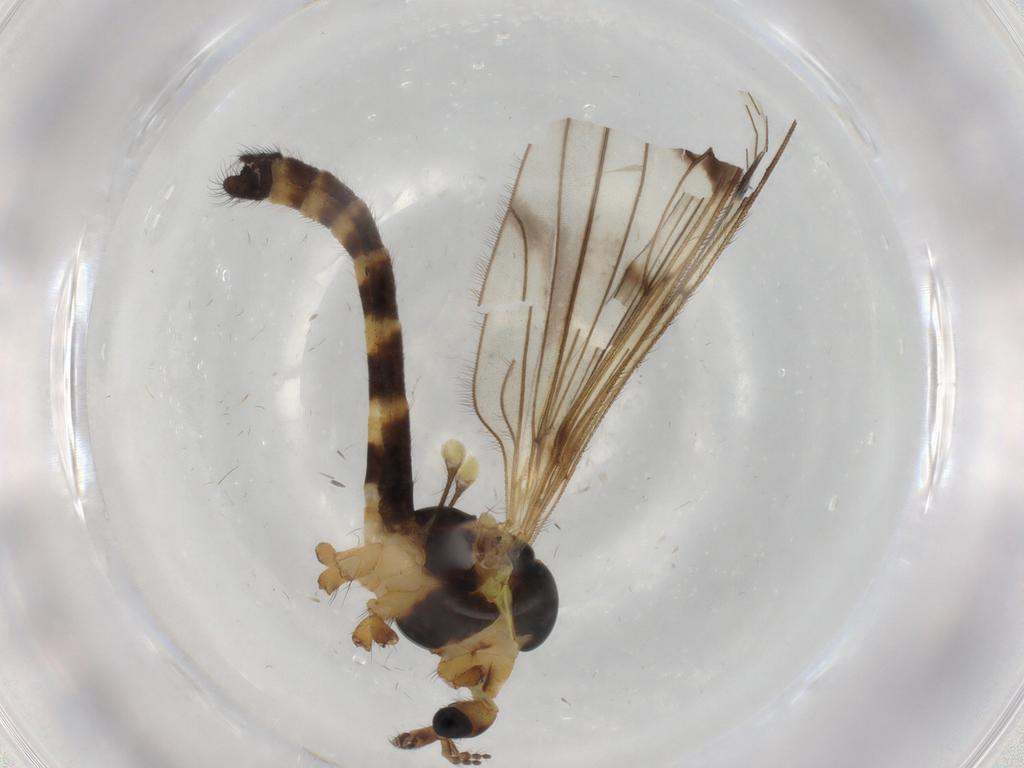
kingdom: Animalia
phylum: Arthropoda
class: Insecta
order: Diptera
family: Limoniidae
